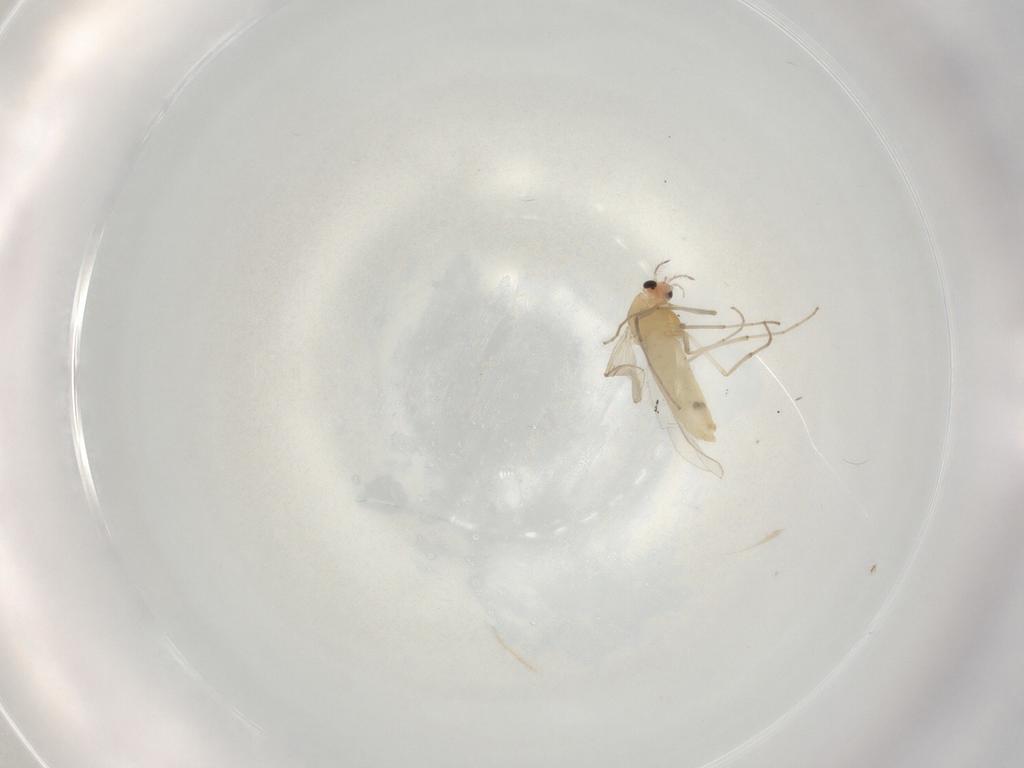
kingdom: Animalia
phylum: Arthropoda
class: Insecta
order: Diptera
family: Chironomidae
